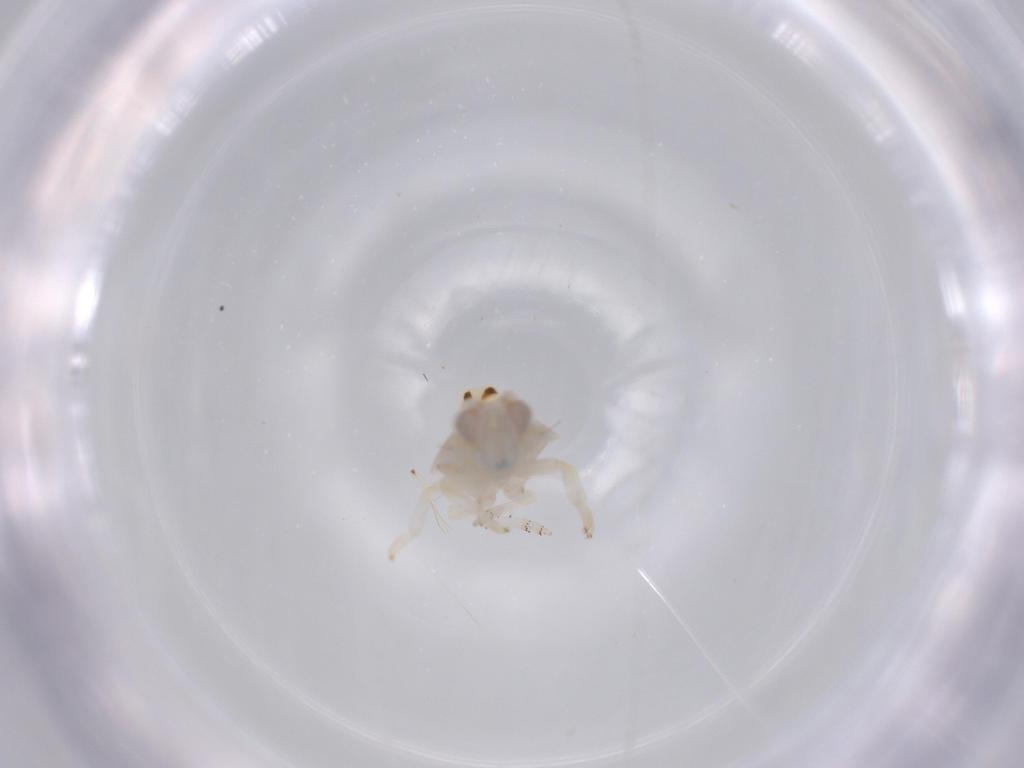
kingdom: Animalia
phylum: Arthropoda
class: Insecta
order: Hemiptera
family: Nogodinidae
